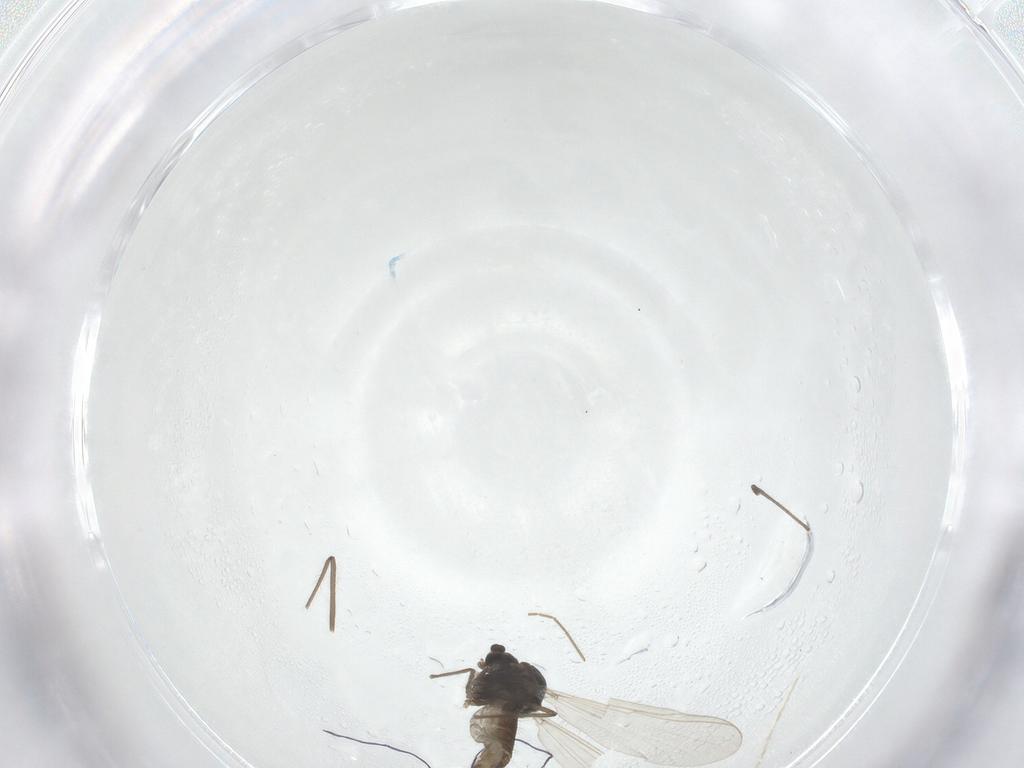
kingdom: Animalia
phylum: Arthropoda
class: Insecta
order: Diptera
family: Chironomidae
